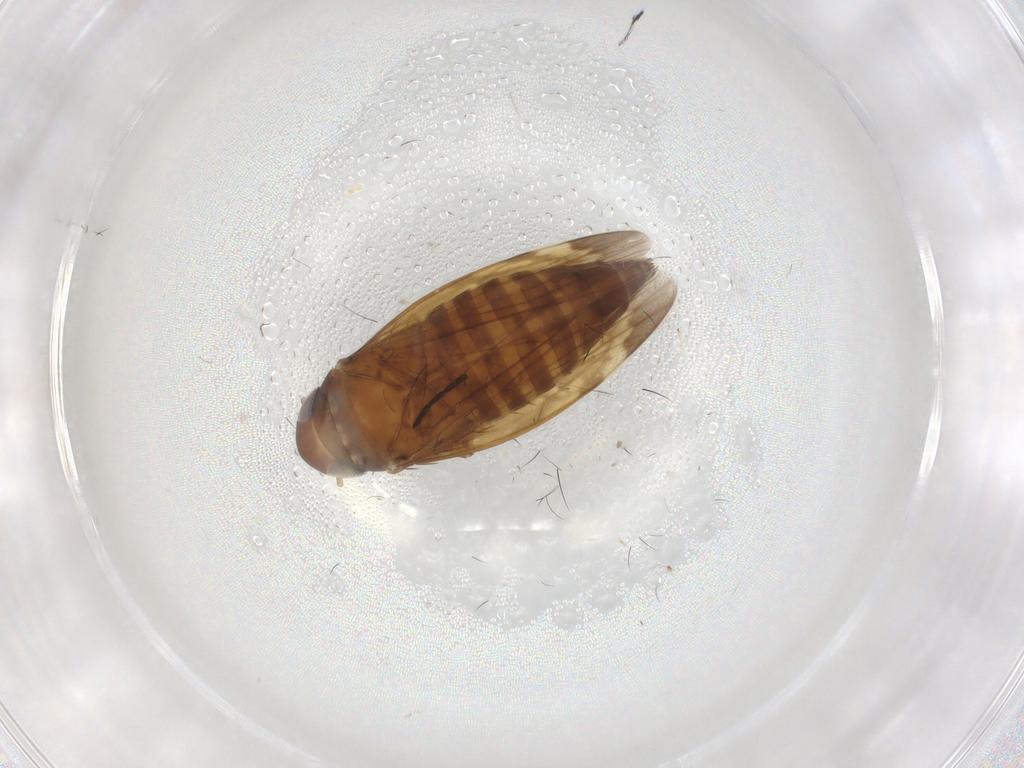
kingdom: Animalia
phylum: Arthropoda
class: Insecta
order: Hemiptera
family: Cicadellidae
